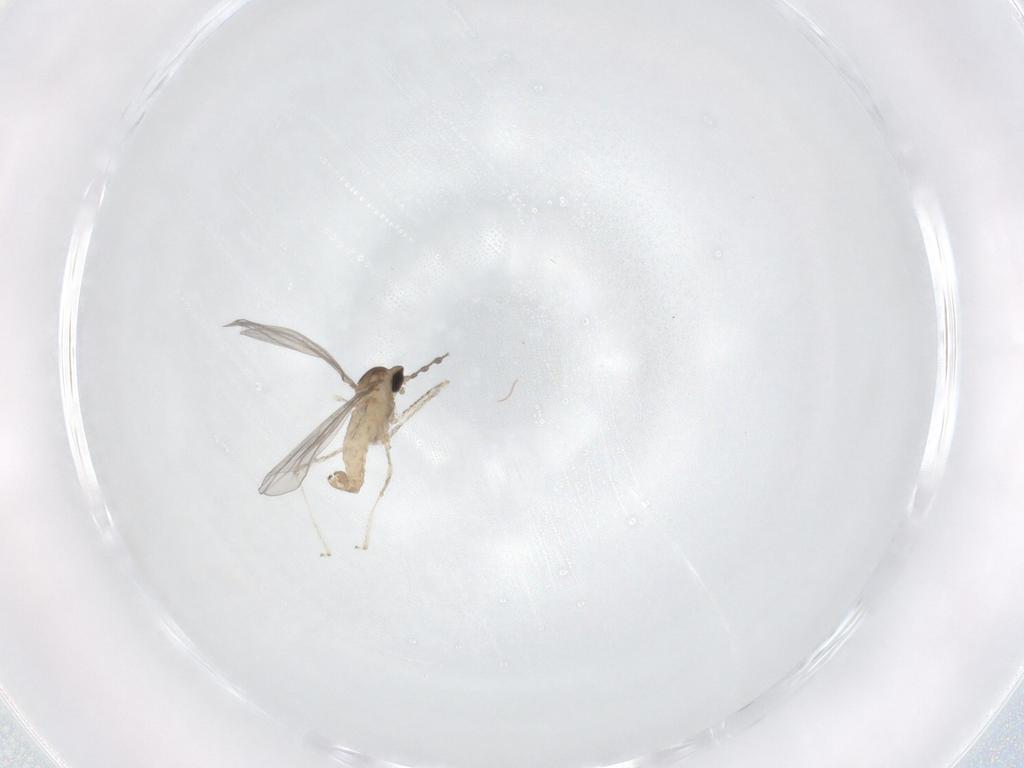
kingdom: Animalia
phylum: Arthropoda
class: Insecta
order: Diptera
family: Cecidomyiidae
